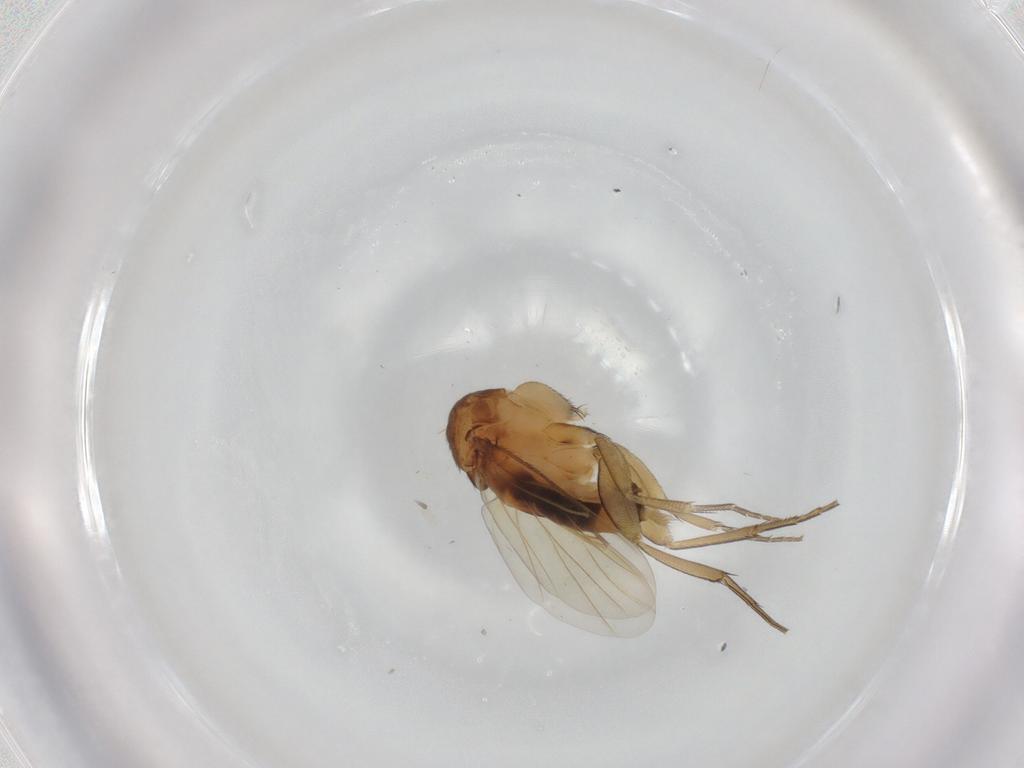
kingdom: Animalia
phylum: Arthropoda
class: Insecta
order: Diptera
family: Phoridae
